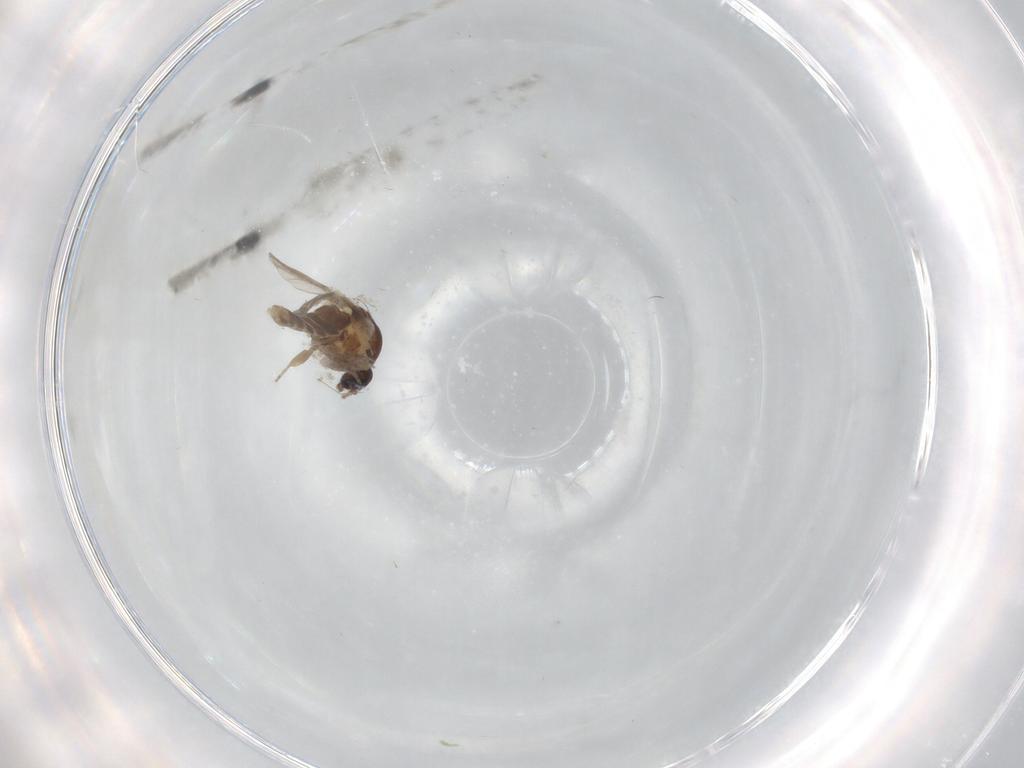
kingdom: Animalia
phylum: Arthropoda
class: Insecta
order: Diptera
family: Ceratopogonidae
